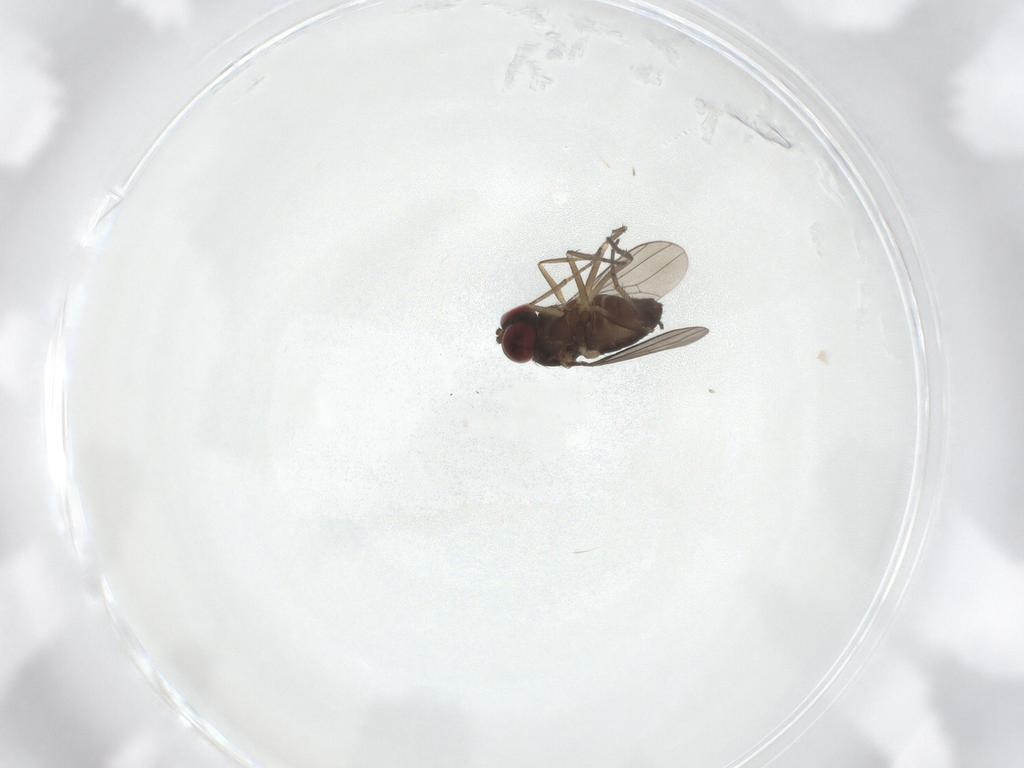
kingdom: Animalia
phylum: Arthropoda
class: Insecta
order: Diptera
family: Dolichopodidae
